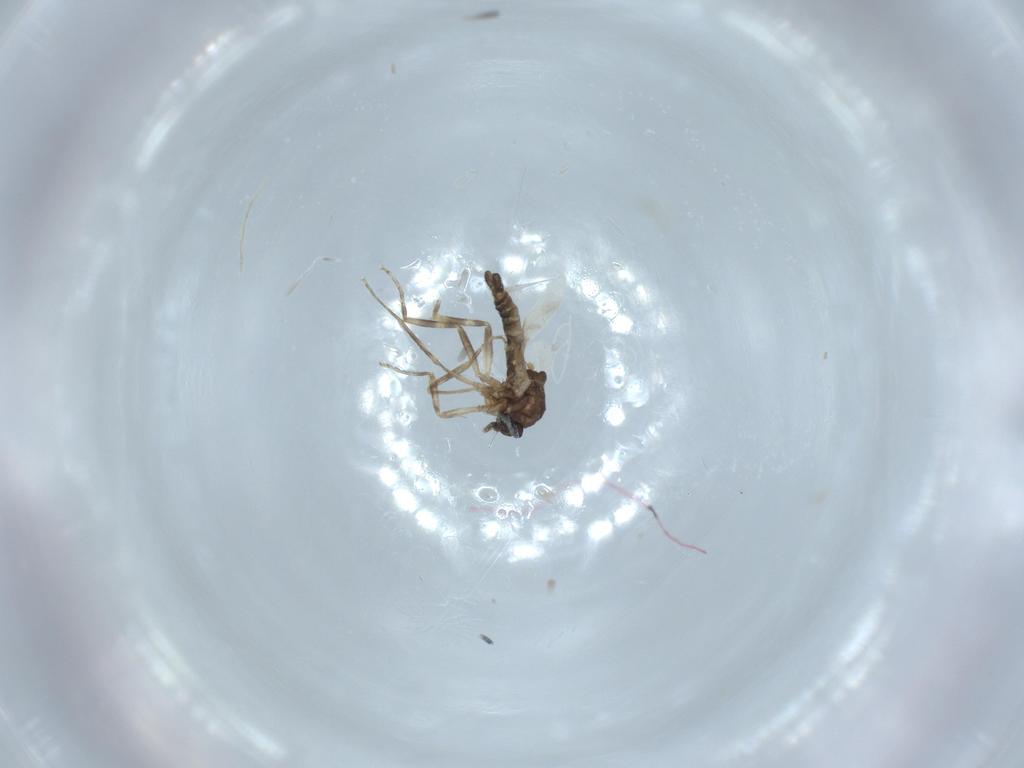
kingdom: Animalia
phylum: Arthropoda
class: Insecta
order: Diptera
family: Ceratopogonidae
